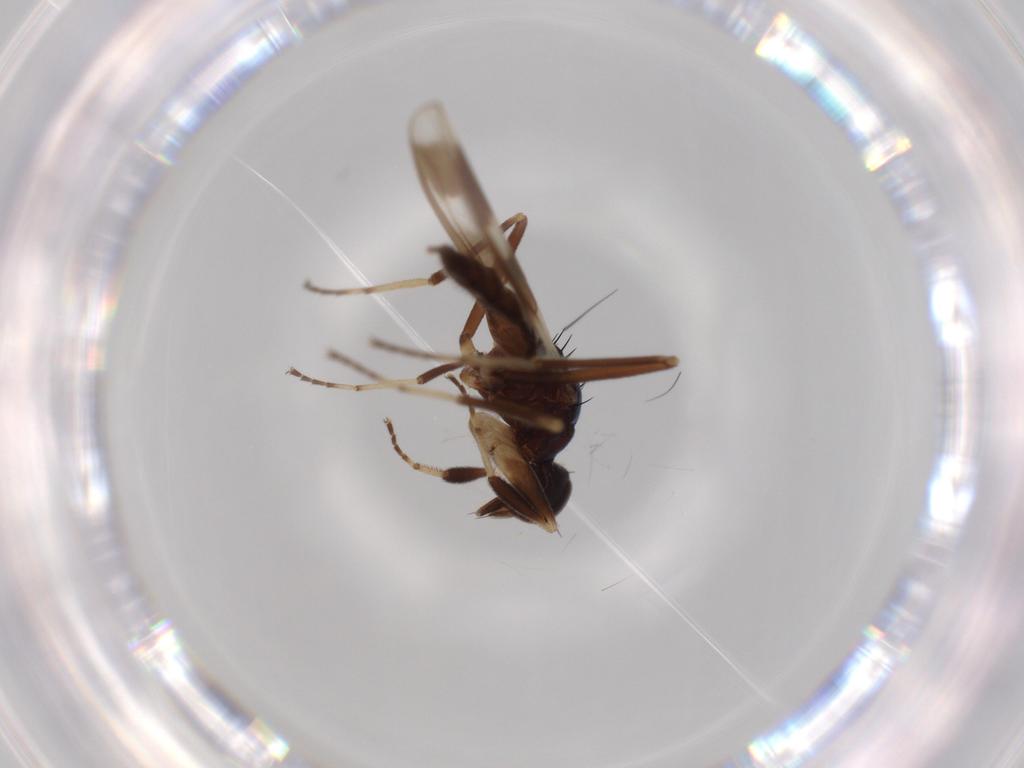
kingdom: Animalia
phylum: Arthropoda
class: Insecta
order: Diptera
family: Hybotidae
